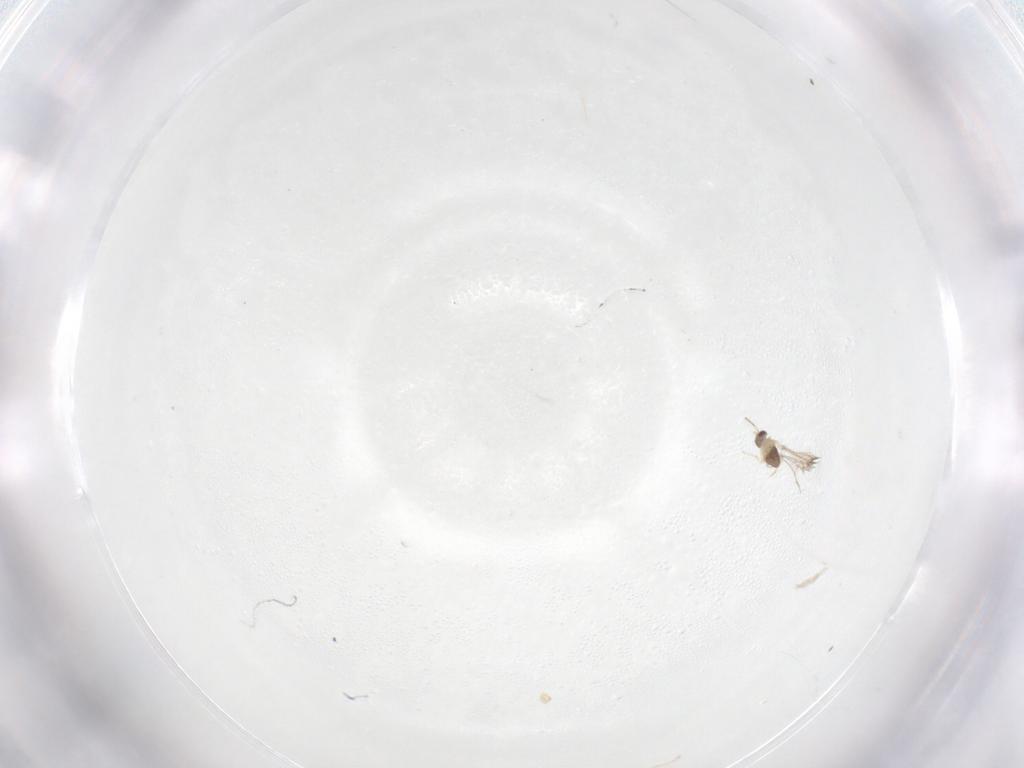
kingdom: Animalia
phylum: Arthropoda
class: Insecta
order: Hymenoptera
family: Mymaridae
